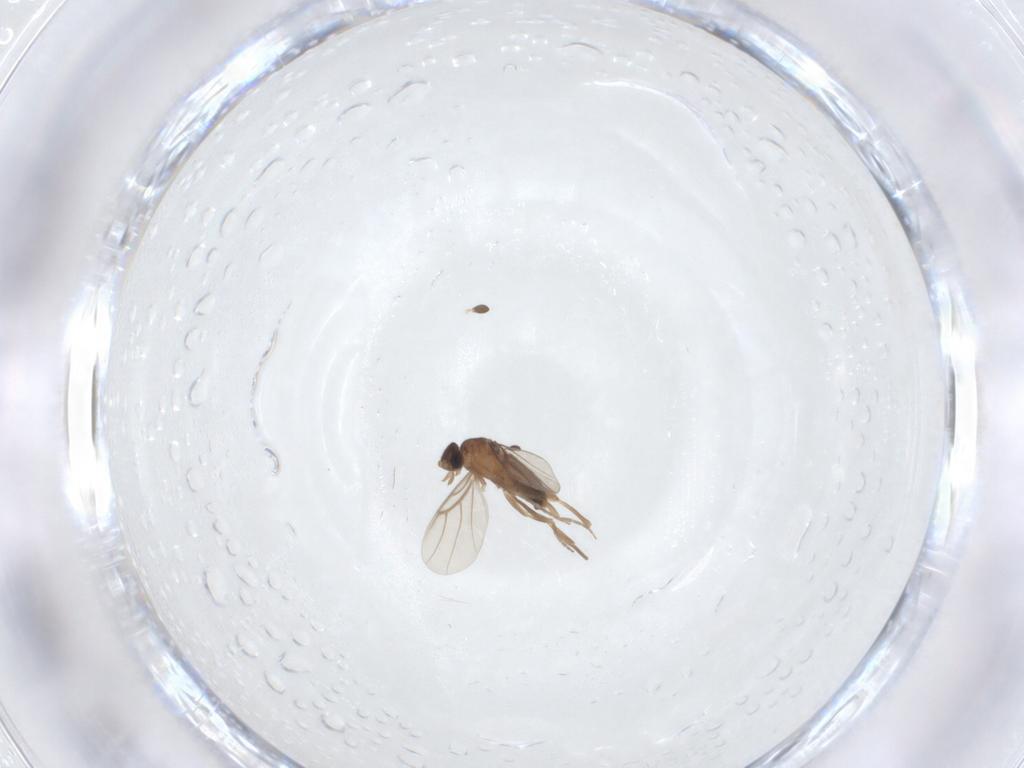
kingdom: Animalia
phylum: Arthropoda
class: Insecta
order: Diptera
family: Phoridae
